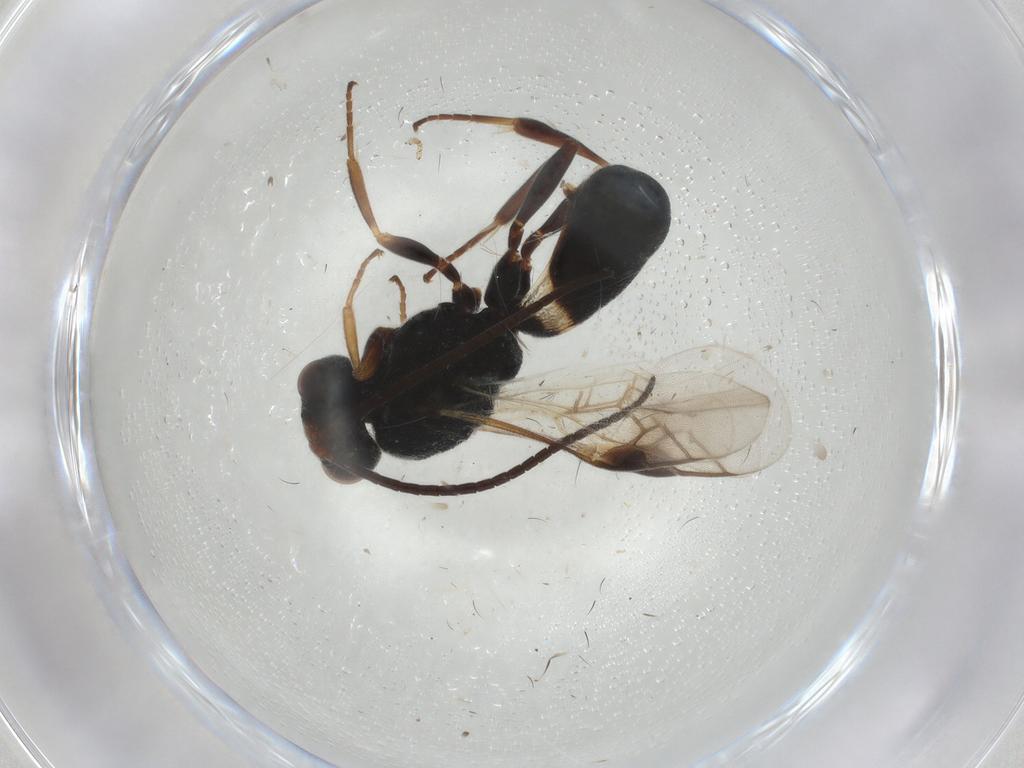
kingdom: Animalia
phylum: Arthropoda
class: Insecta
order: Hymenoptera
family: Braconidae
